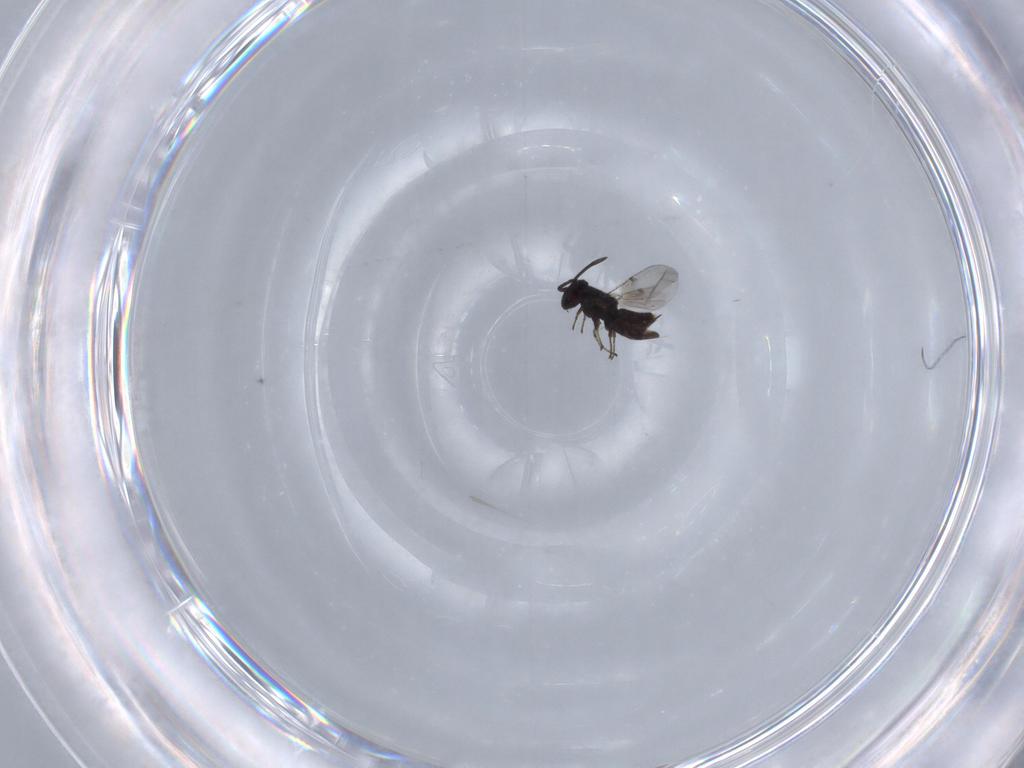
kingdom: Animalia
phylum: Arthropoda
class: Insecta
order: Hymenoptera
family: Encyrtidae
